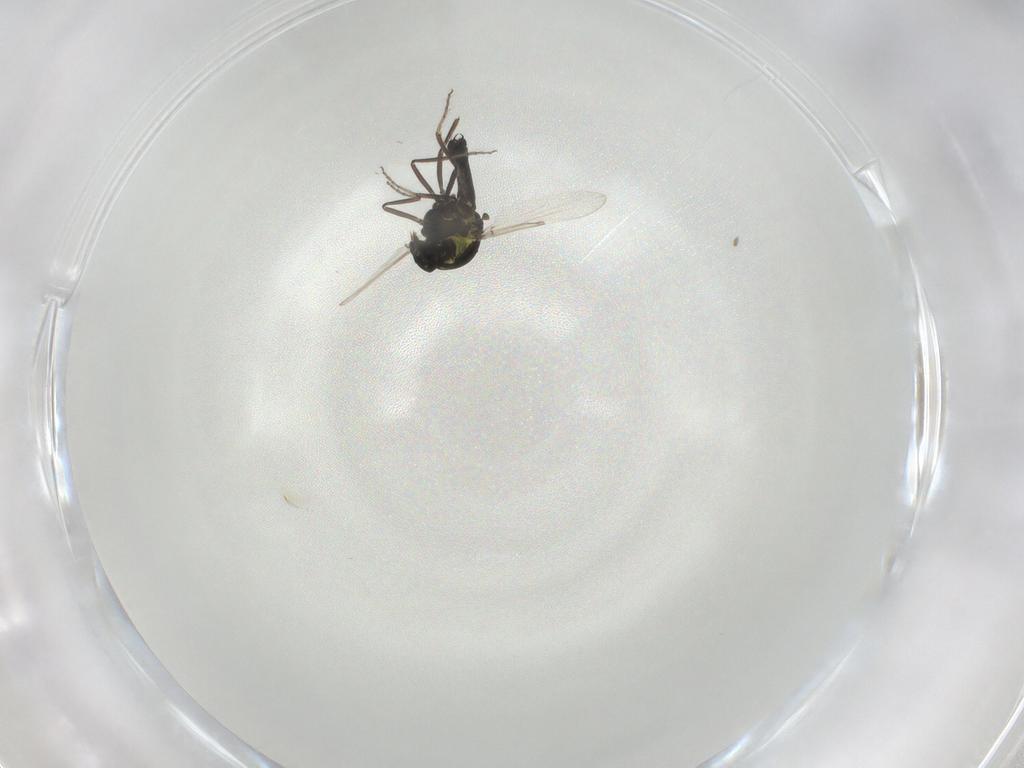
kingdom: Animalia
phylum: Arthropoda
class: Insecta
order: Diptera
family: Ceratopogonidae
